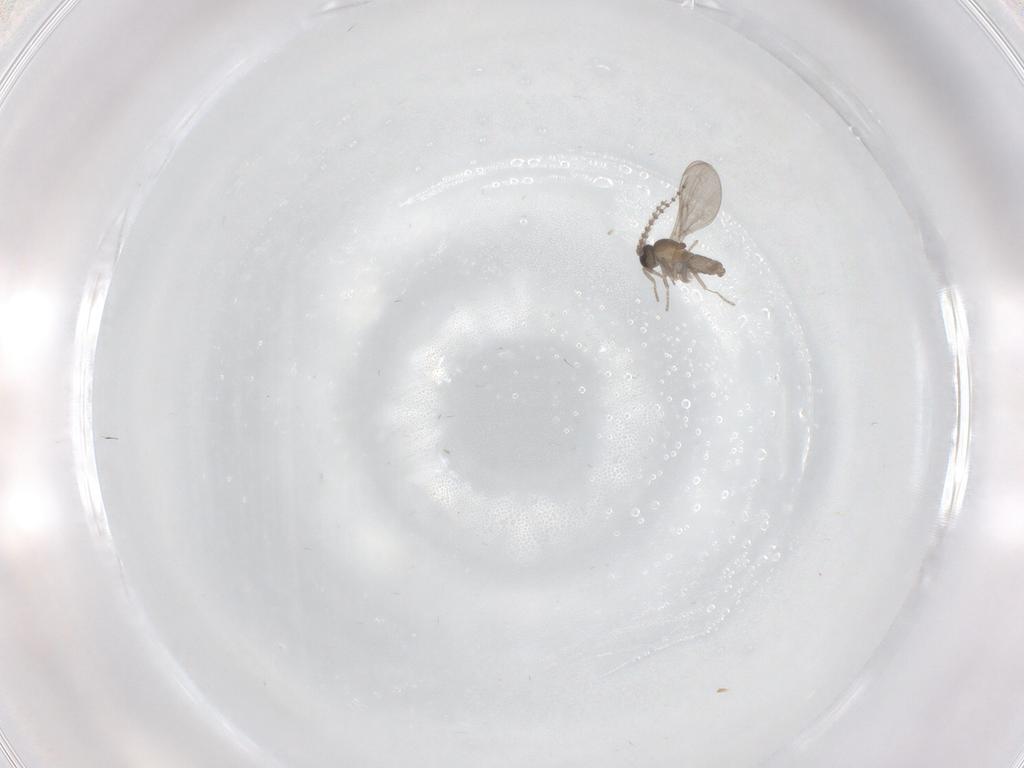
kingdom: Animalia
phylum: Arthropoda
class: Insecta
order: Diptera
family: Cecidomyiidae
